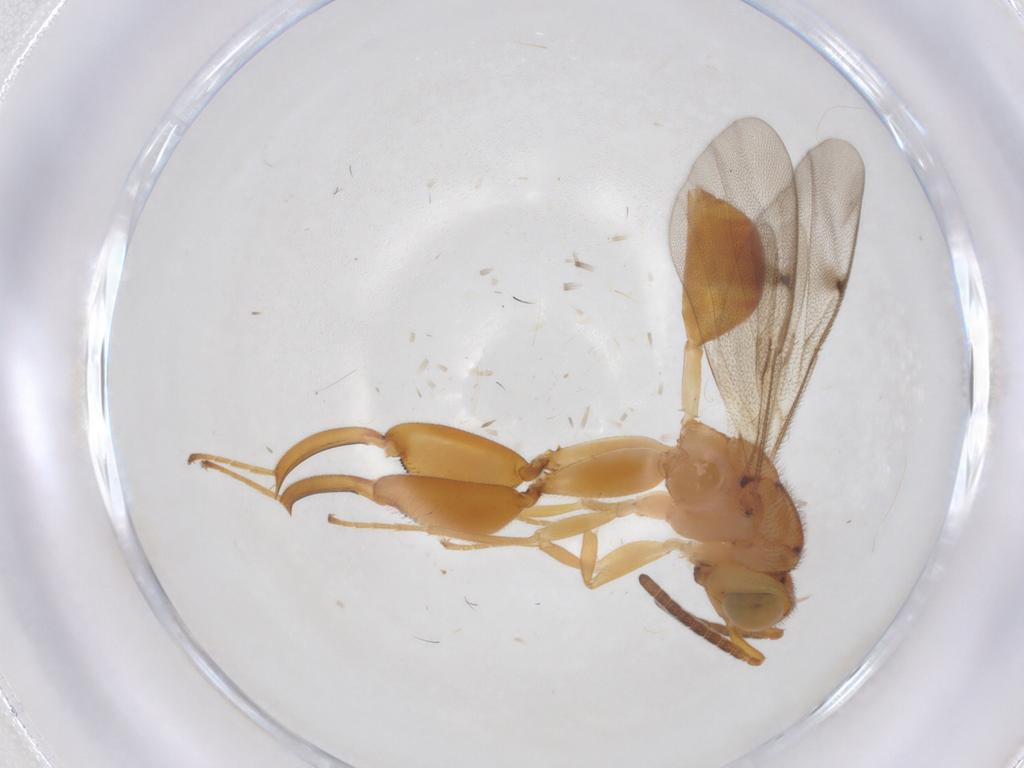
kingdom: Animalia
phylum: Arthropoda
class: Insecta
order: Hymenoptera
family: Chalcididae
